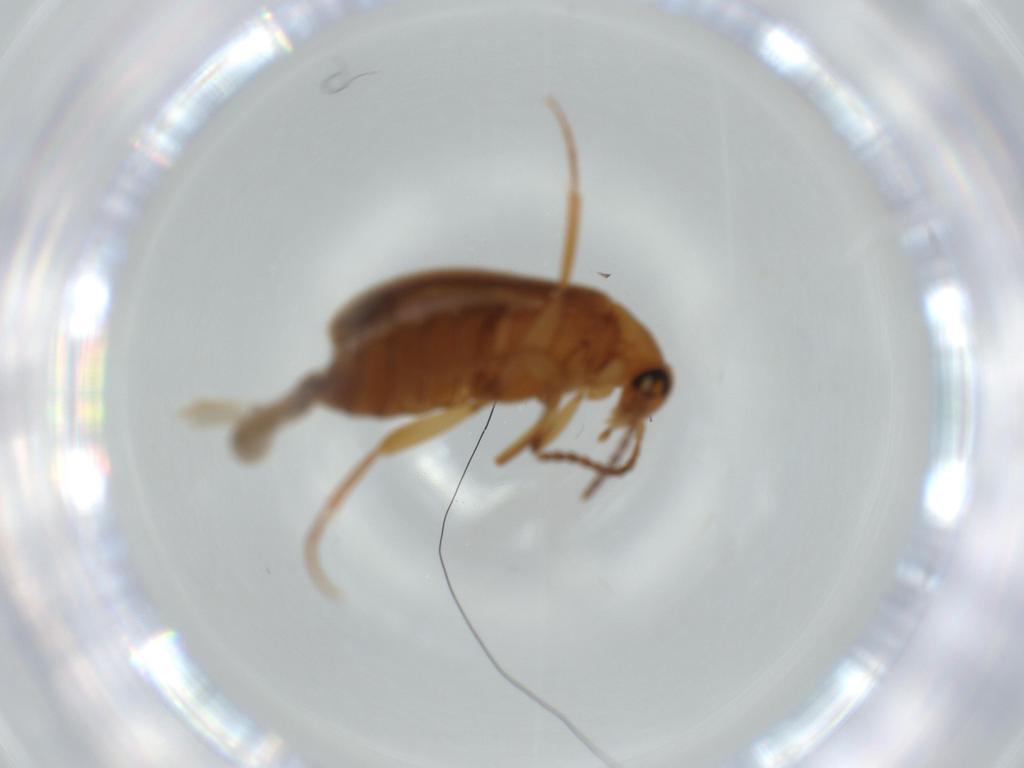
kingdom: Animalia
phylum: Arthropoda
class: Insecta
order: Coleoptera
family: Scraptiidae
